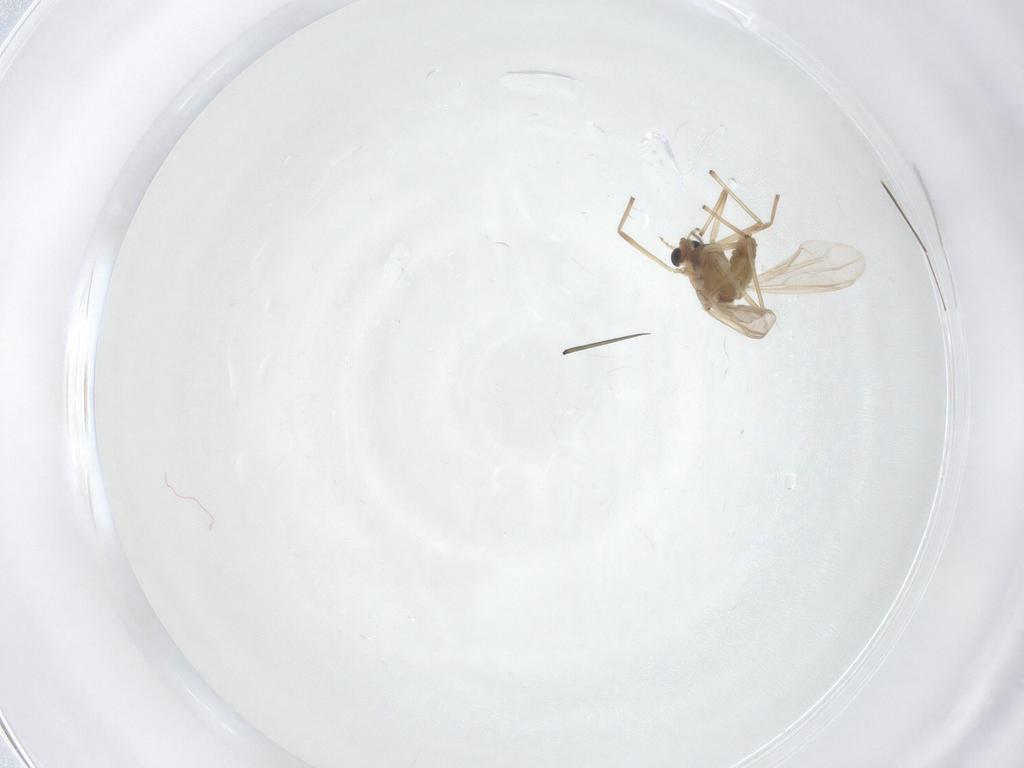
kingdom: Animalia
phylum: Arthropoda
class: Insecta
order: Diptera
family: Chironomidae
